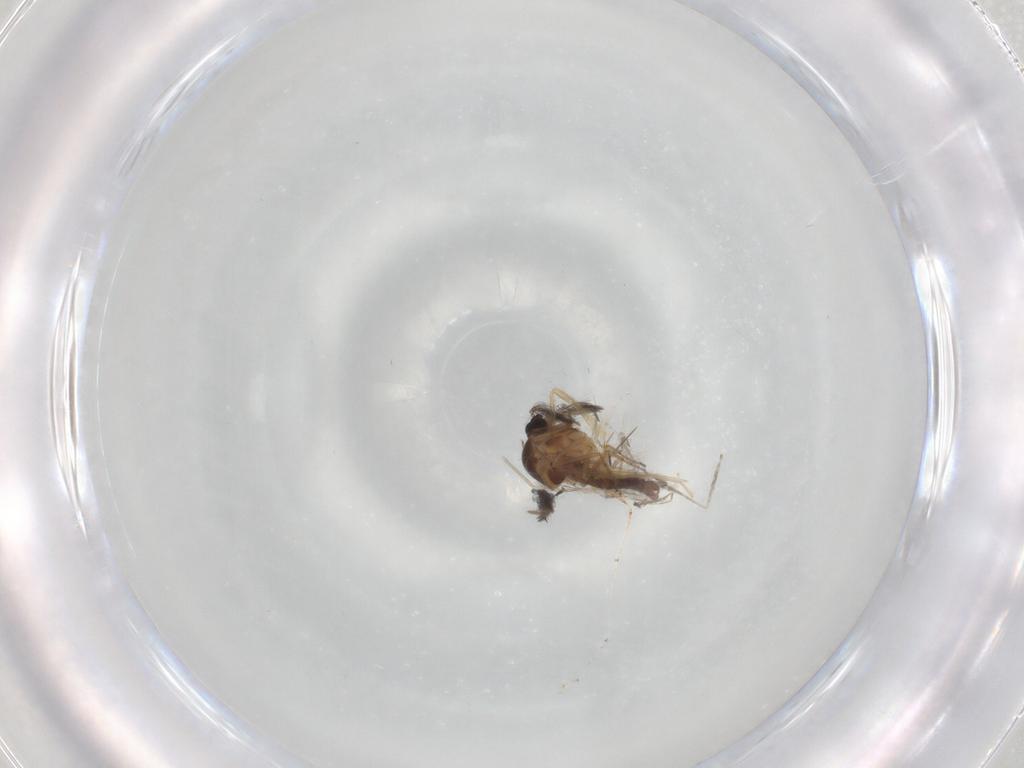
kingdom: Animalia
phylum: Arthropoda
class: Insecta
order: Diptera
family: Ceratopogonidae
